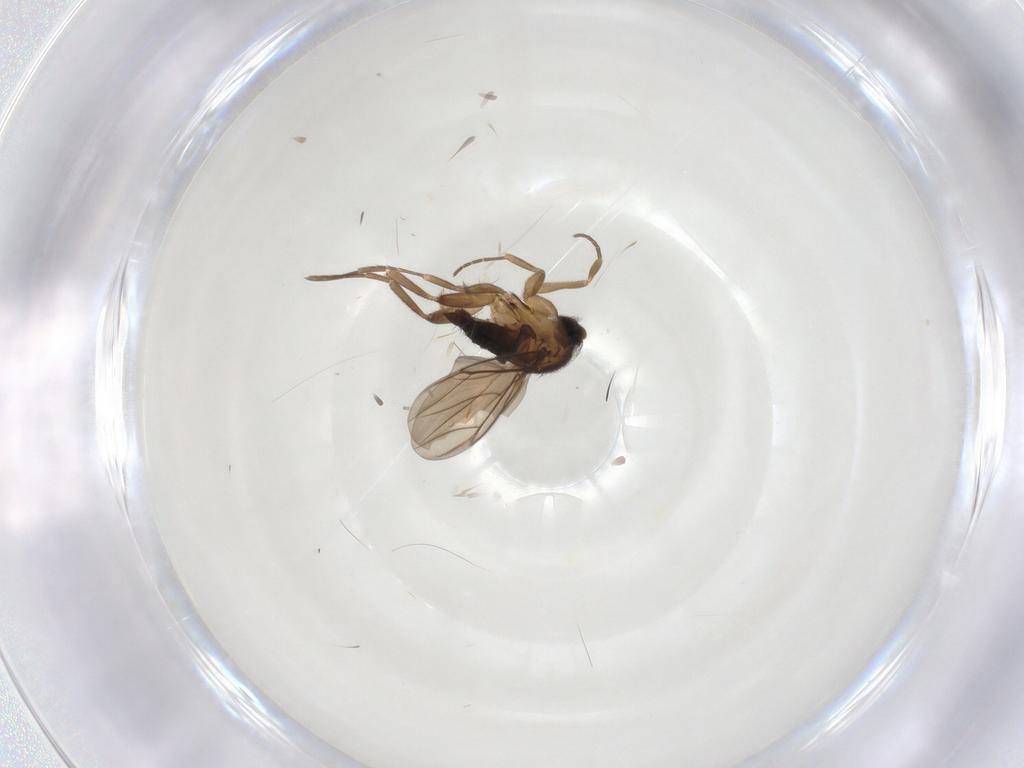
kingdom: Animalia
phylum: Arthropoda
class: Insecta
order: Diptera
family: Phoridae
